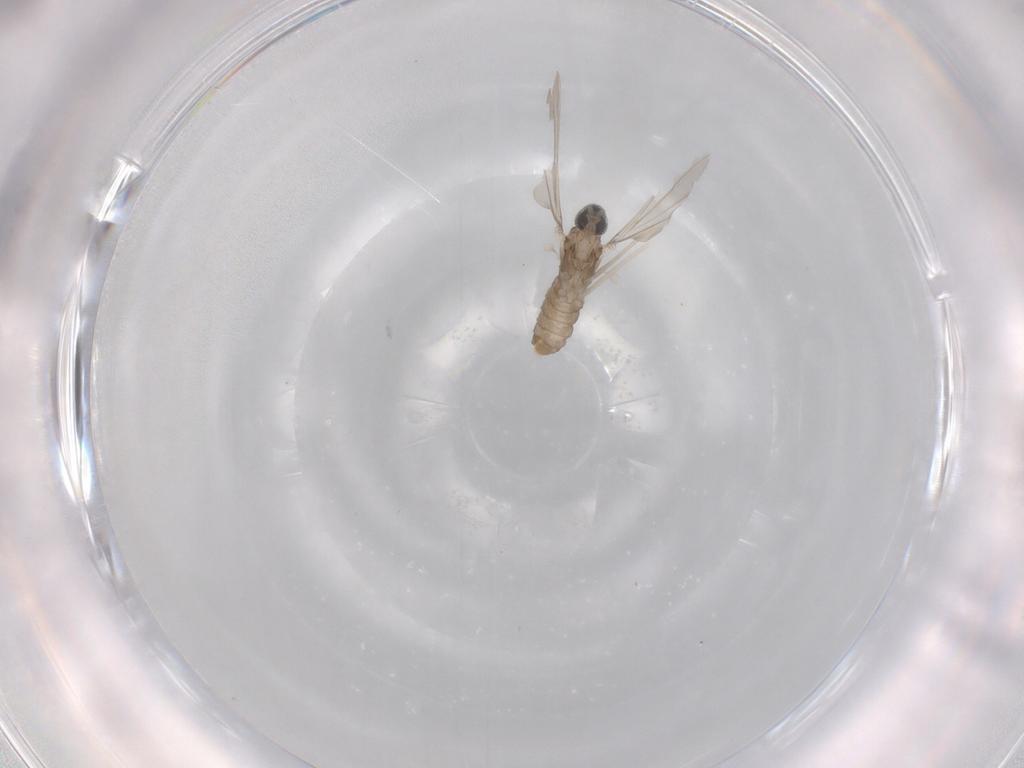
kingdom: Animalia
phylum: Arthropoda
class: Insecta
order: Diptera
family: Cecidomyiidae
